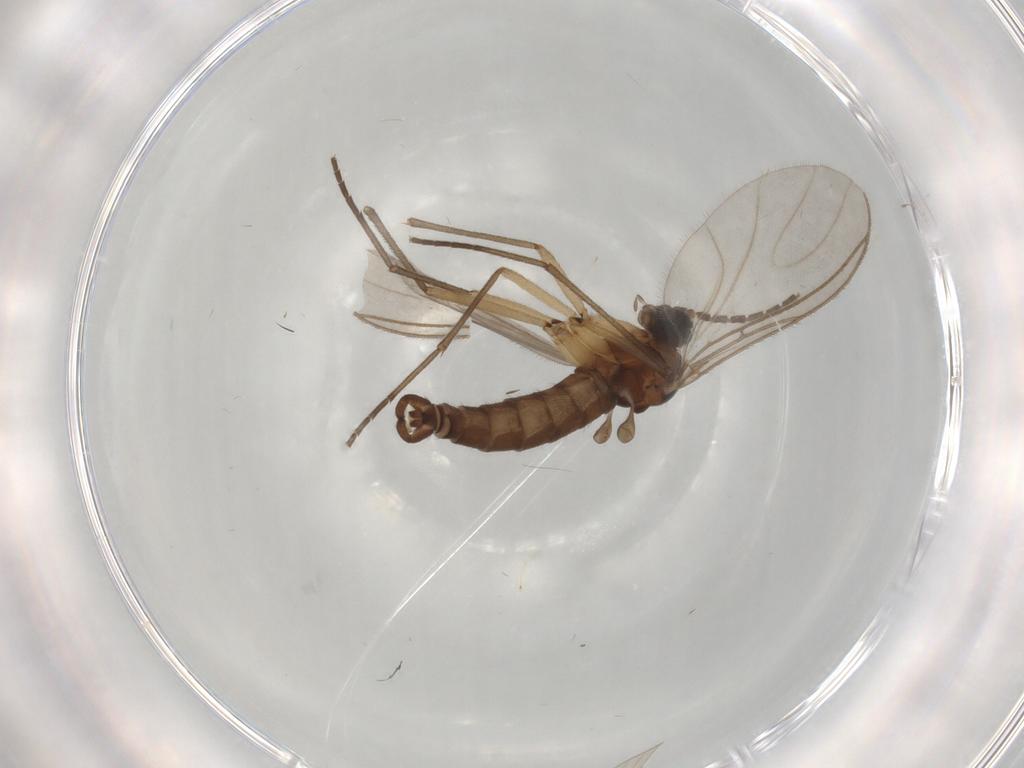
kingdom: Animalia
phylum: Arthropoda
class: Insecta
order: Diptera
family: Sciaridae
